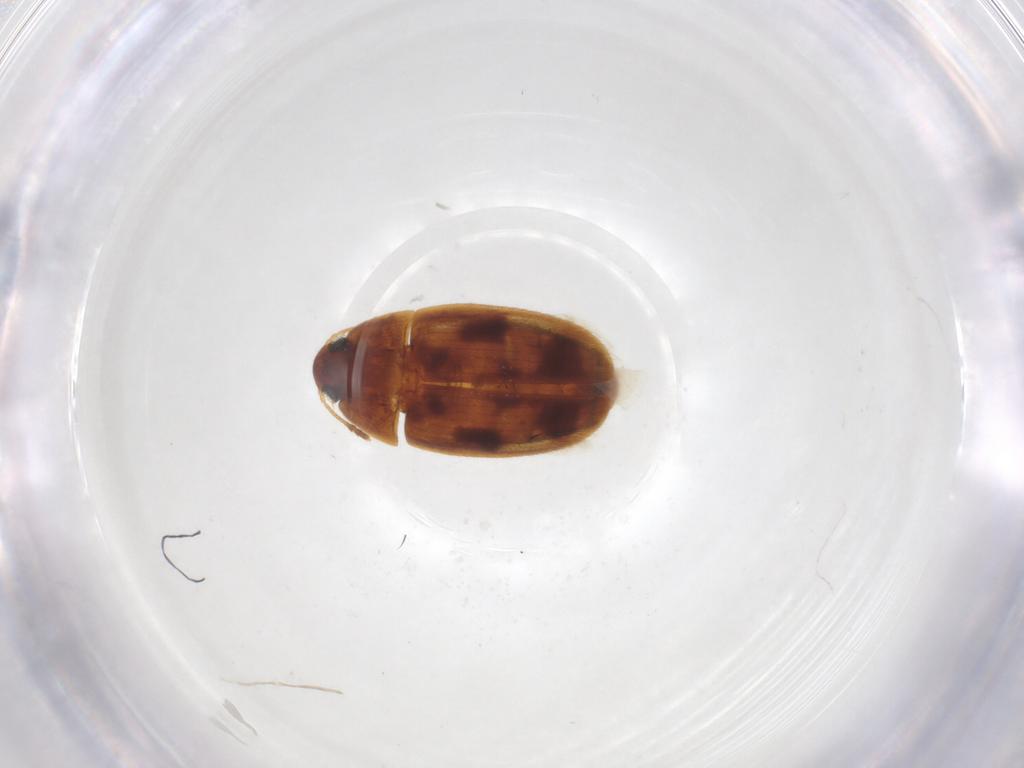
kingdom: Animalia
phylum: Arthropoda
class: Insecta
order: Coleoptera
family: Mycetophagidae
